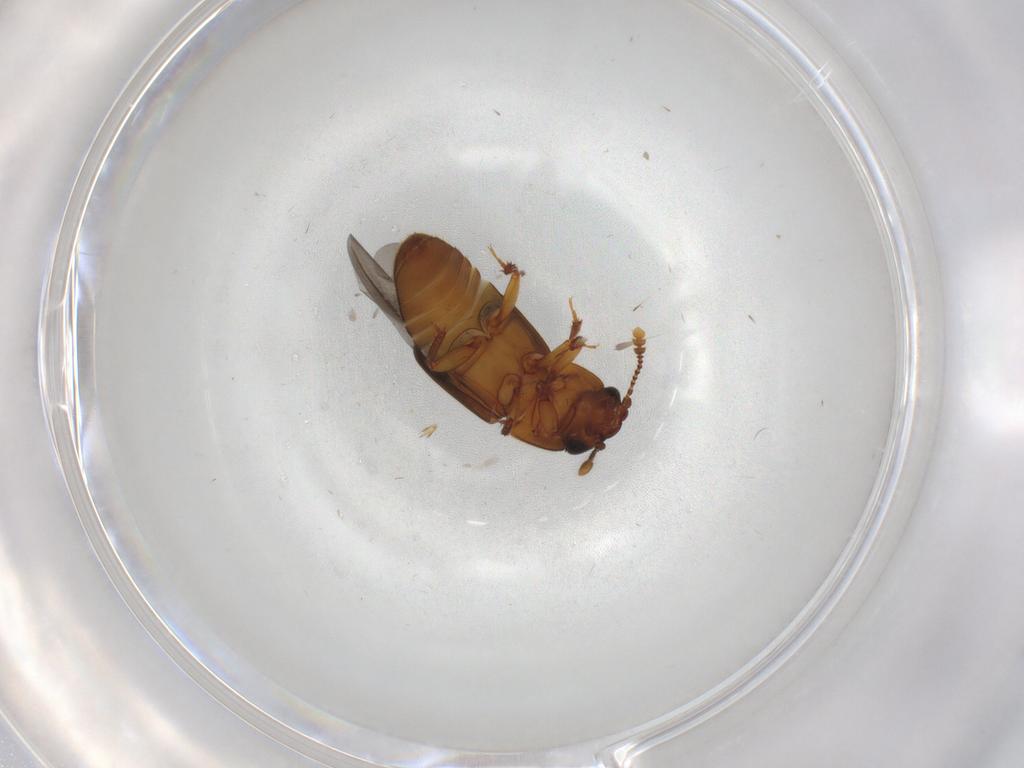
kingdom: Animalia
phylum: Arthropoda
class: Insecta
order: Coleoptera
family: Nitidulidae
